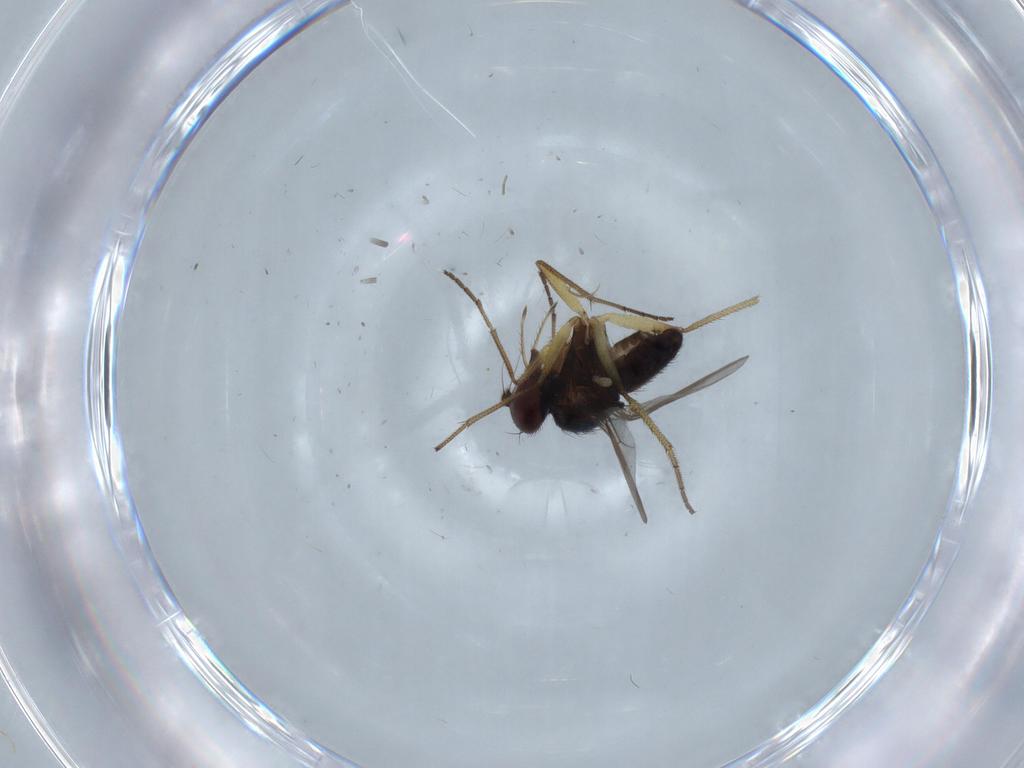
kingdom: Animalia
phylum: Arthropoda
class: Insecta
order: Diptera
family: Dolichopodidae
